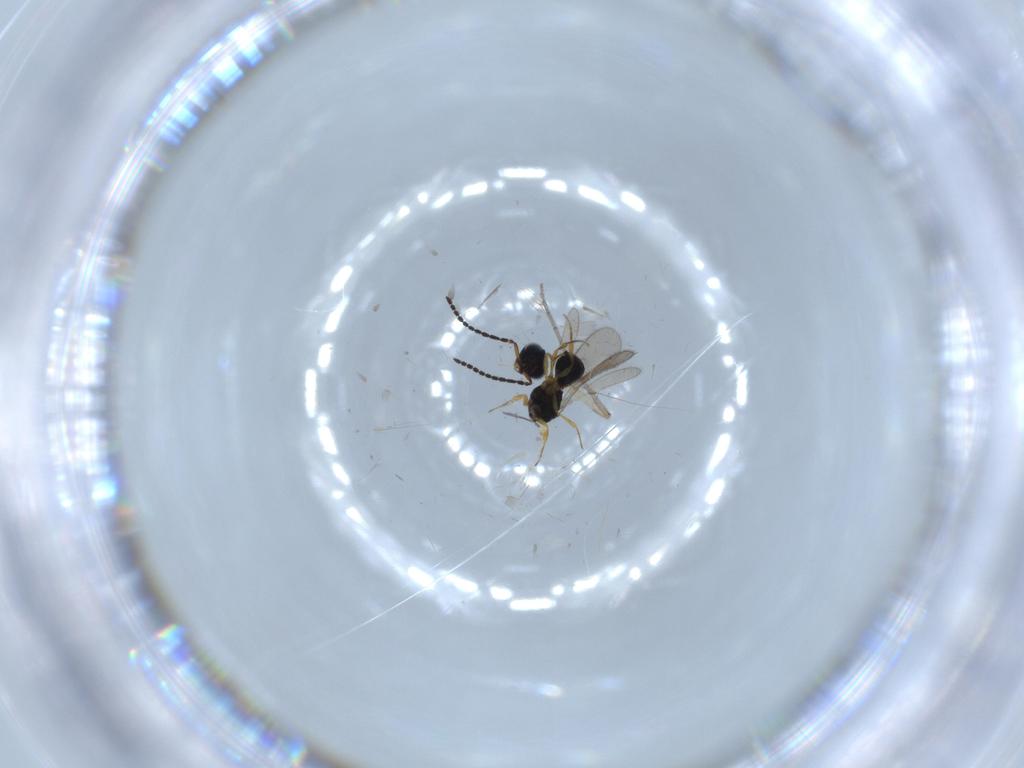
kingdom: Animalia
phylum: Arthropoda
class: Insecta
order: Hymenoptera
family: Scelionidae
